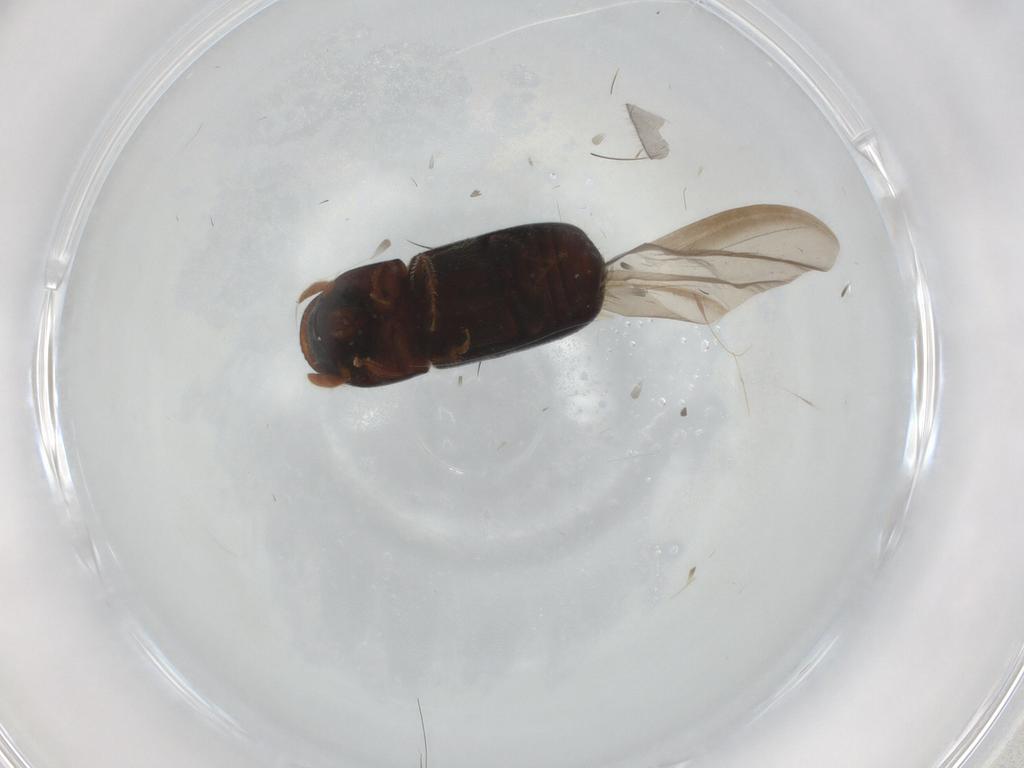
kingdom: Animalia
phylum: Arthropoda
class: Insecta
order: Coleoptera
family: Curculionidae
